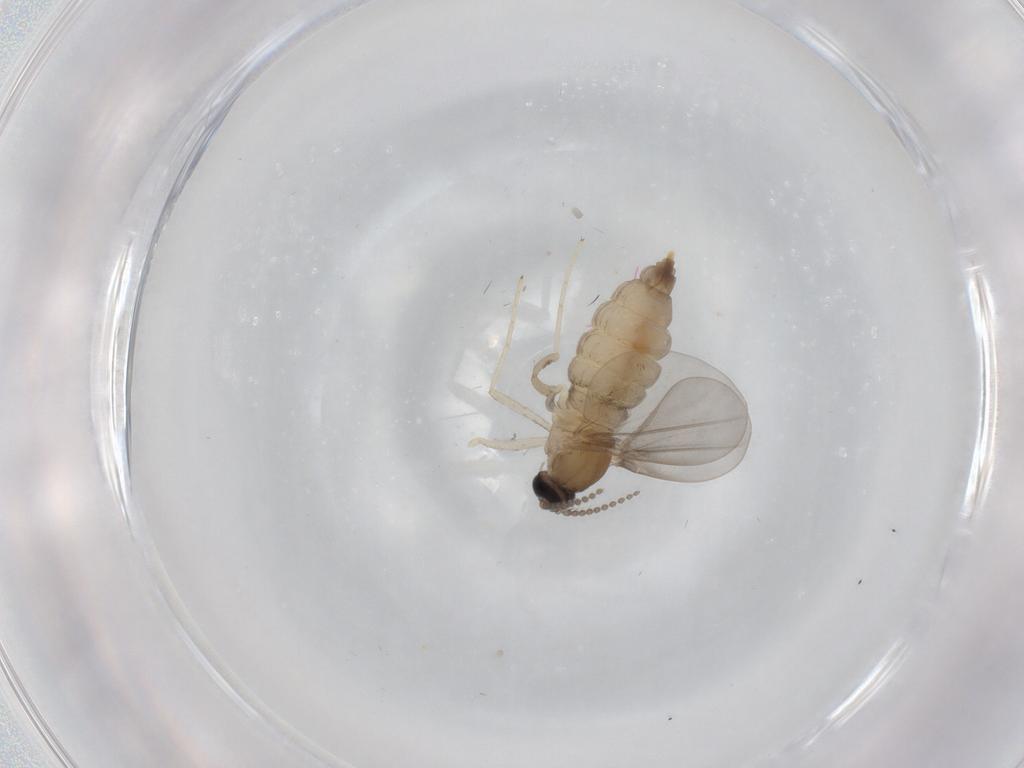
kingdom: Animalia
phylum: Arthropoda
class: Insecta
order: Diptera
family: Cecidomyiidae
